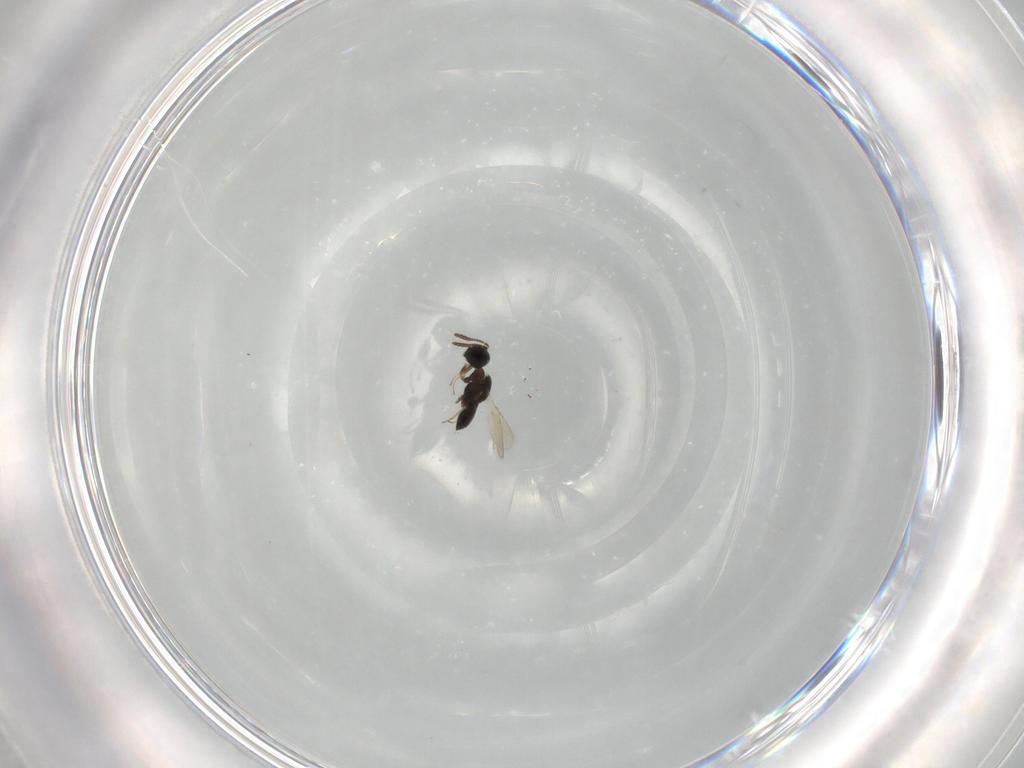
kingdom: Animalia
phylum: Arthropoda
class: Insecta
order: Hymenoptera
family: Scelionidae
